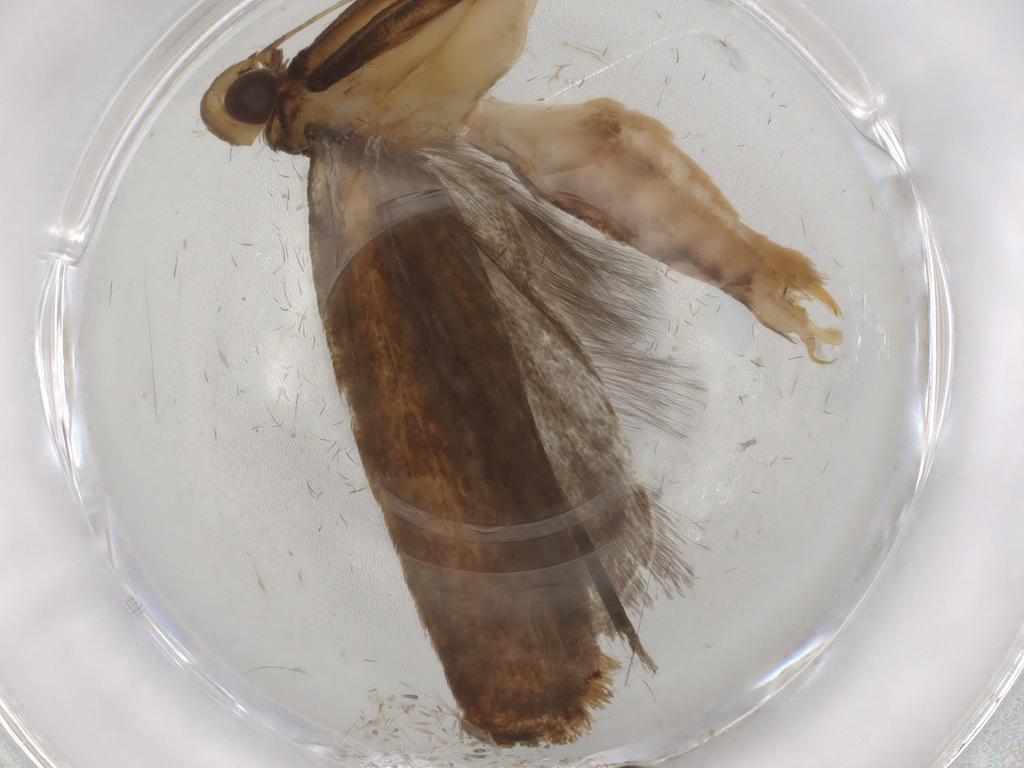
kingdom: Animalia
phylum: Arthropoda
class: Insecta
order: Lepidoptera
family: Gelechiidae
